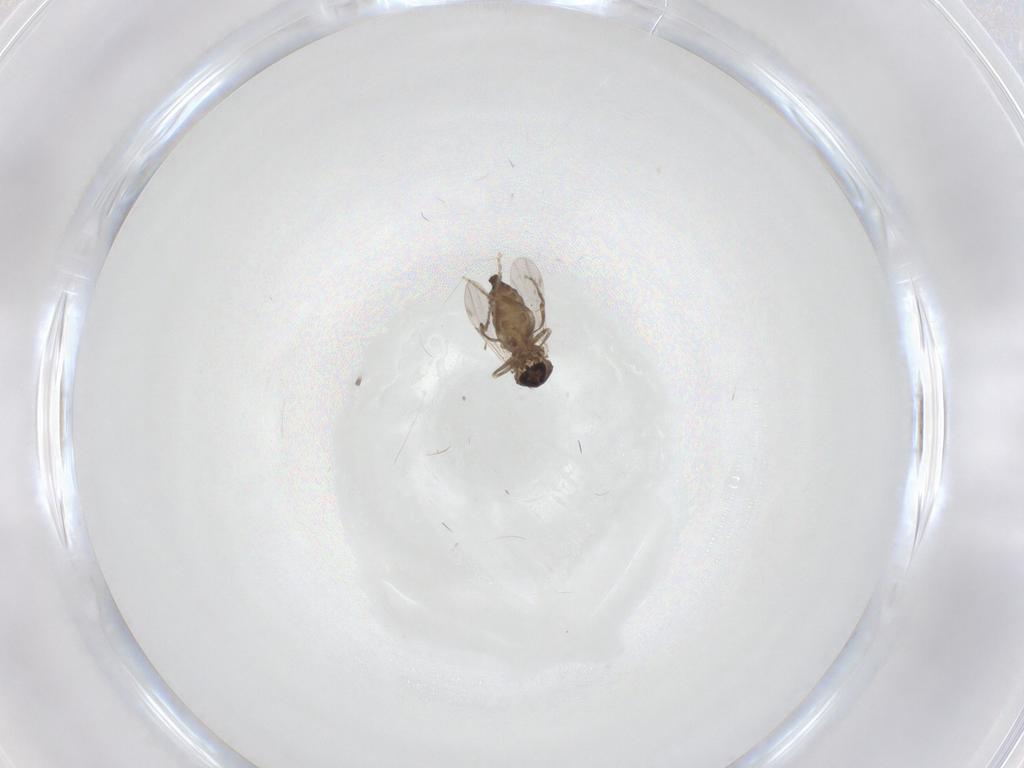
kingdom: Animalia
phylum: Arthropoda
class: Insecta
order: Diptera
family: Ceratopogonidae
